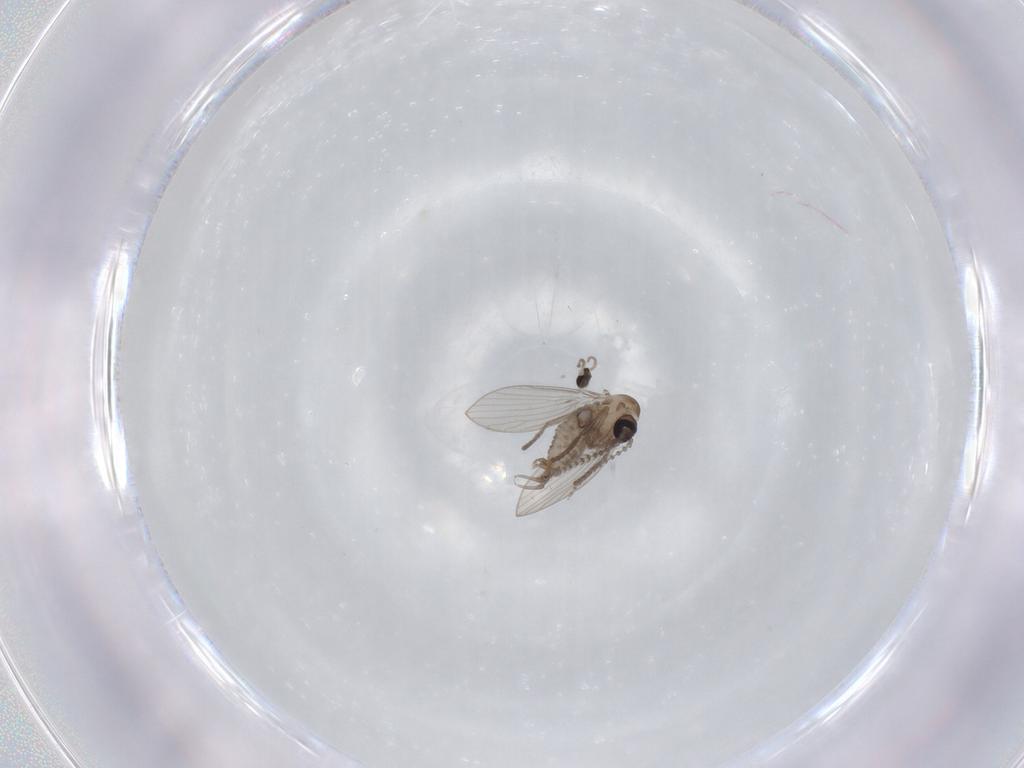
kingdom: Animalia
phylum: Arthropoda
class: Insecta
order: Diptera
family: Psychodidae
